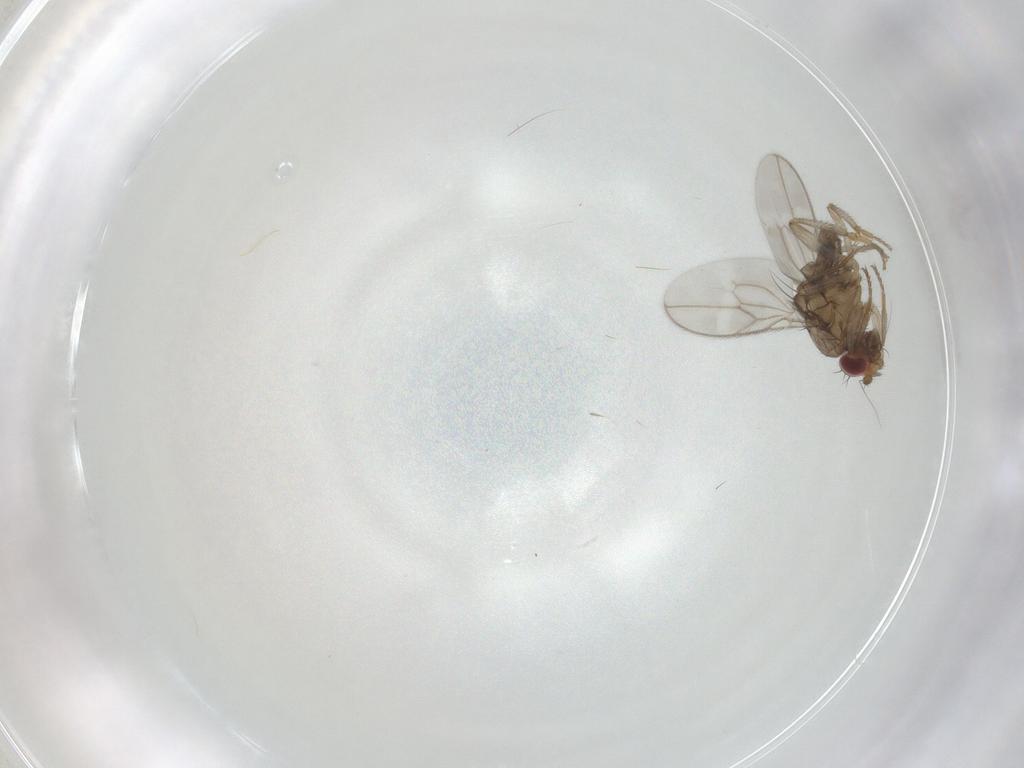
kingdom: Animalia
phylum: Arthropoda
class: Insecta
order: Diptera
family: Sphaeroceridae
